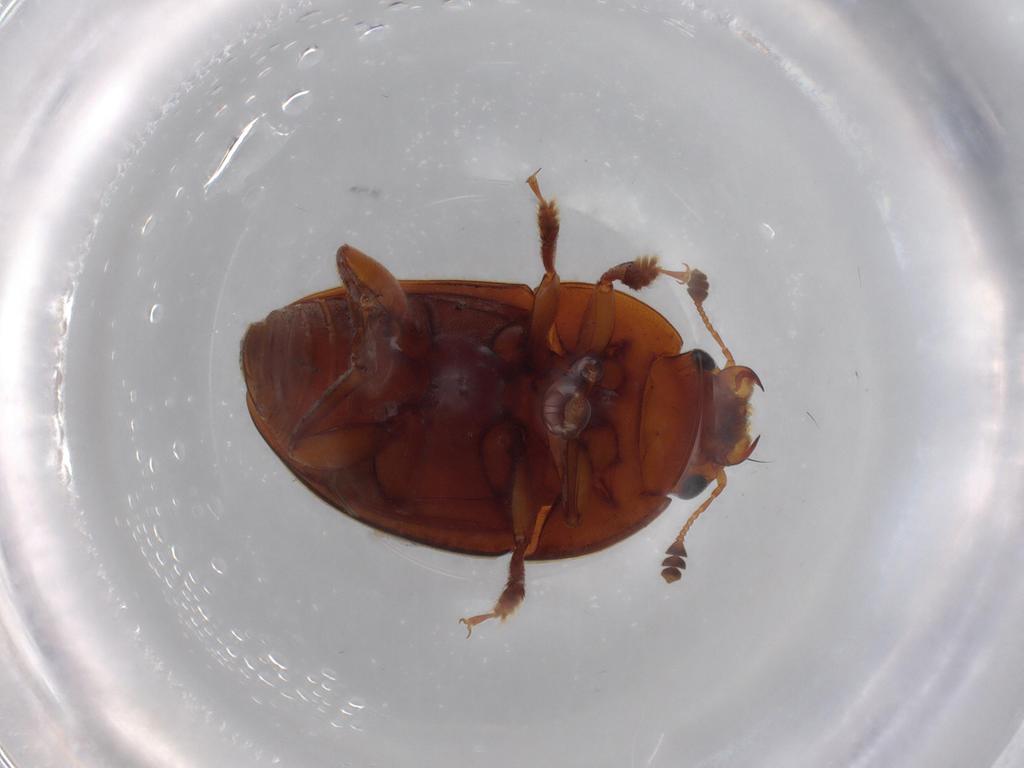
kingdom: Animalia
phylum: Arthropoda
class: Insecta
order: Coleoptera
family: Nitidulidae
